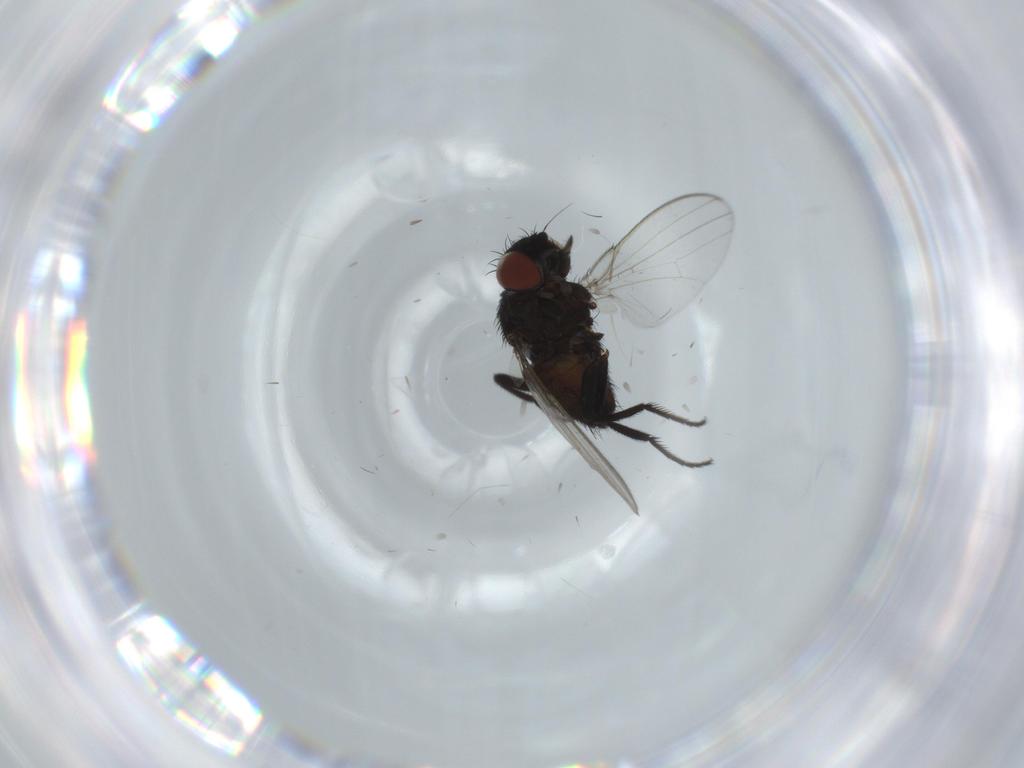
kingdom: Animalia
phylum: Arthropoda
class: Insecta
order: Diptera
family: Milichiidae
